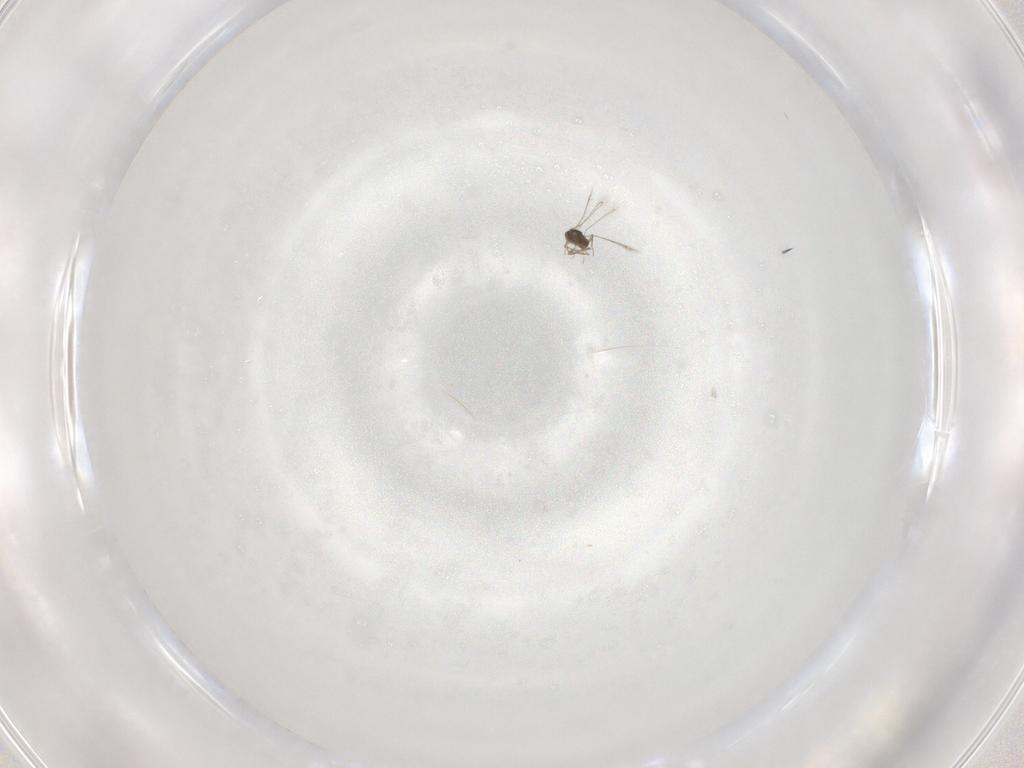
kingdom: Animalia
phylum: Arthropoda
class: Insecta
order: Hymenoptera
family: Mymaridae
